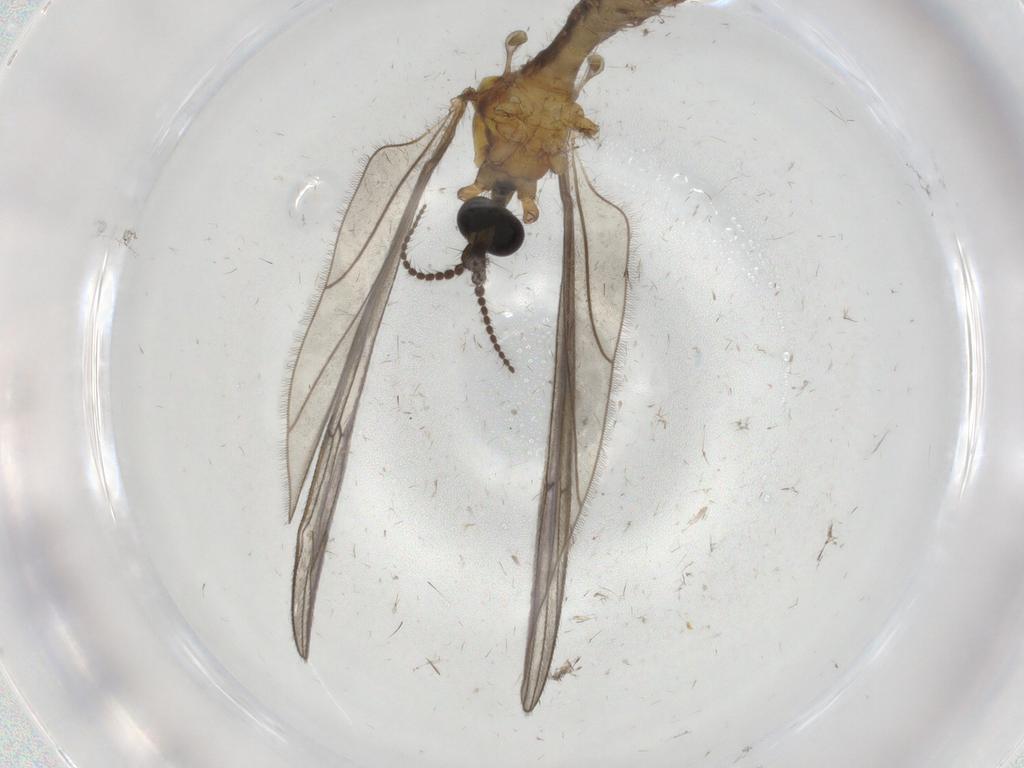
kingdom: Animalia
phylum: Arthropoda
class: Insecta
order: Diptera
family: Limoniidae
